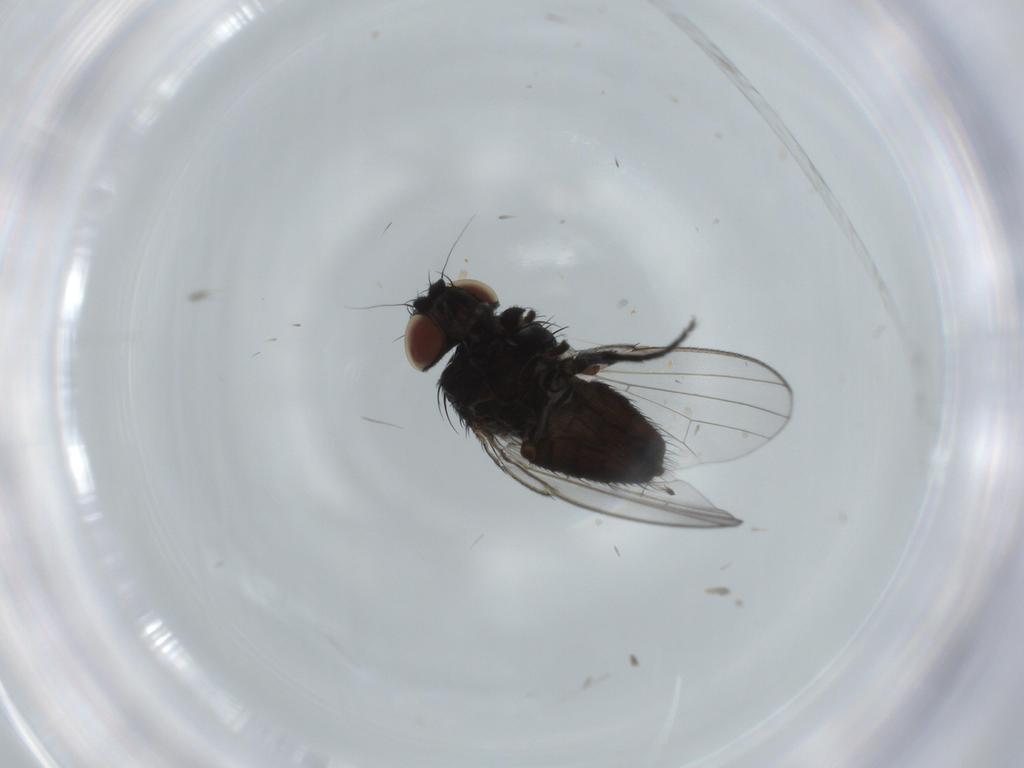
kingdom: Animalia
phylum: Arthropoda
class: Insecta
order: Diptera
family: Milichiidae
